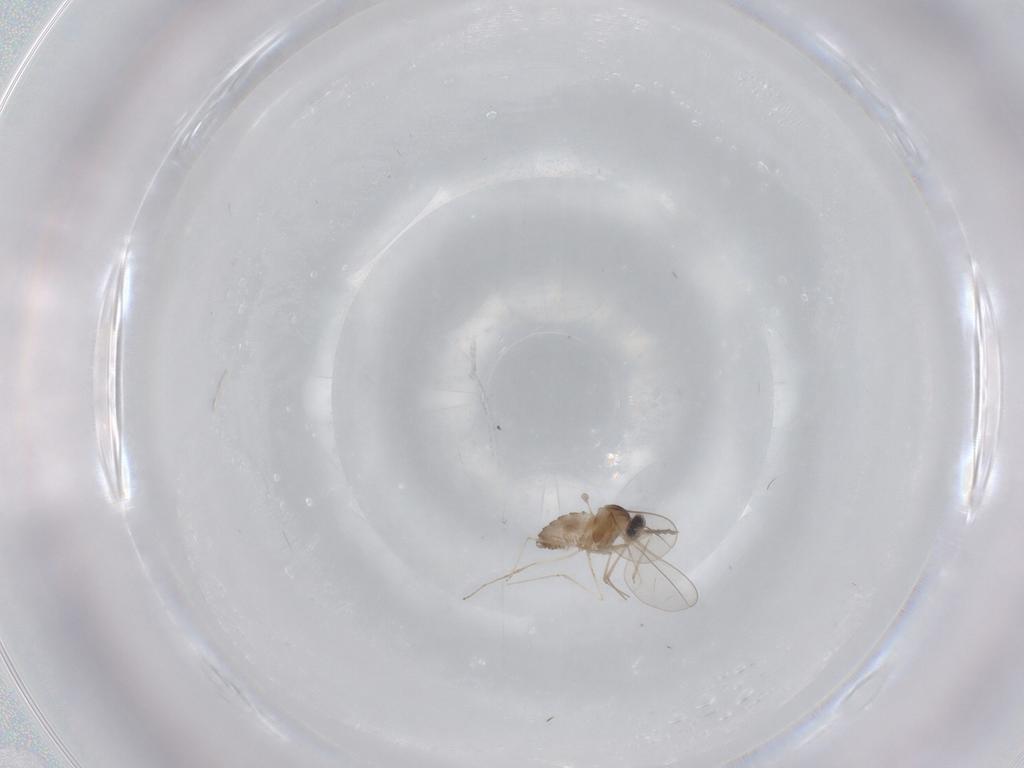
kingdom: Animalia
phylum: Arthropoda
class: Insecta
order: Diptera
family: Cecidomyiidae
